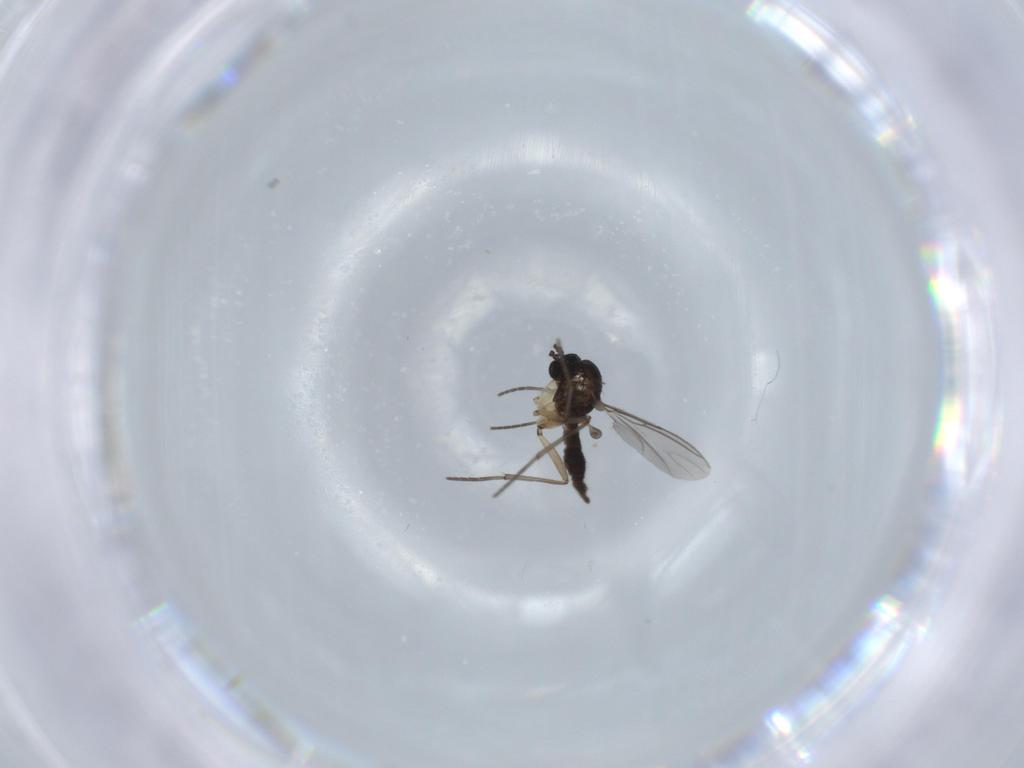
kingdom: Animalia
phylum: Arthropoda
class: Insecta
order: Diptera
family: Sciaridae
